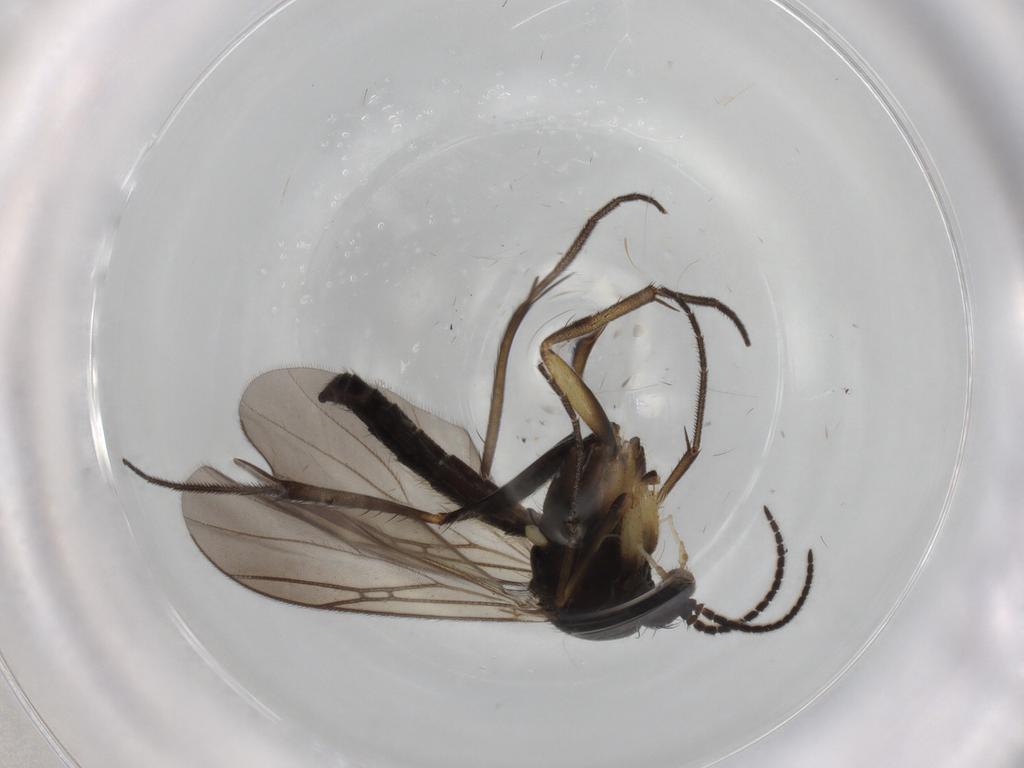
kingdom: Animalia
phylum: Arthropoda
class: Insecta
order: Diptera
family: Mycetophilidae
